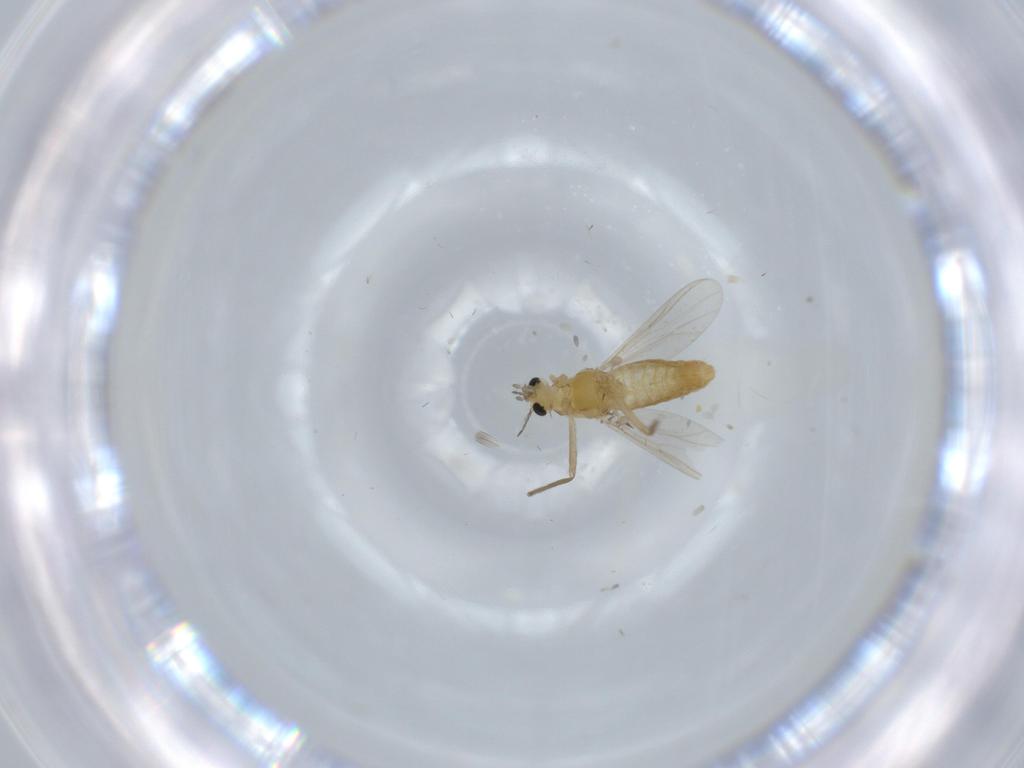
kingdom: Animalia
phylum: Arthropoda
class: Insecta
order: Diptera
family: Chironomidae
